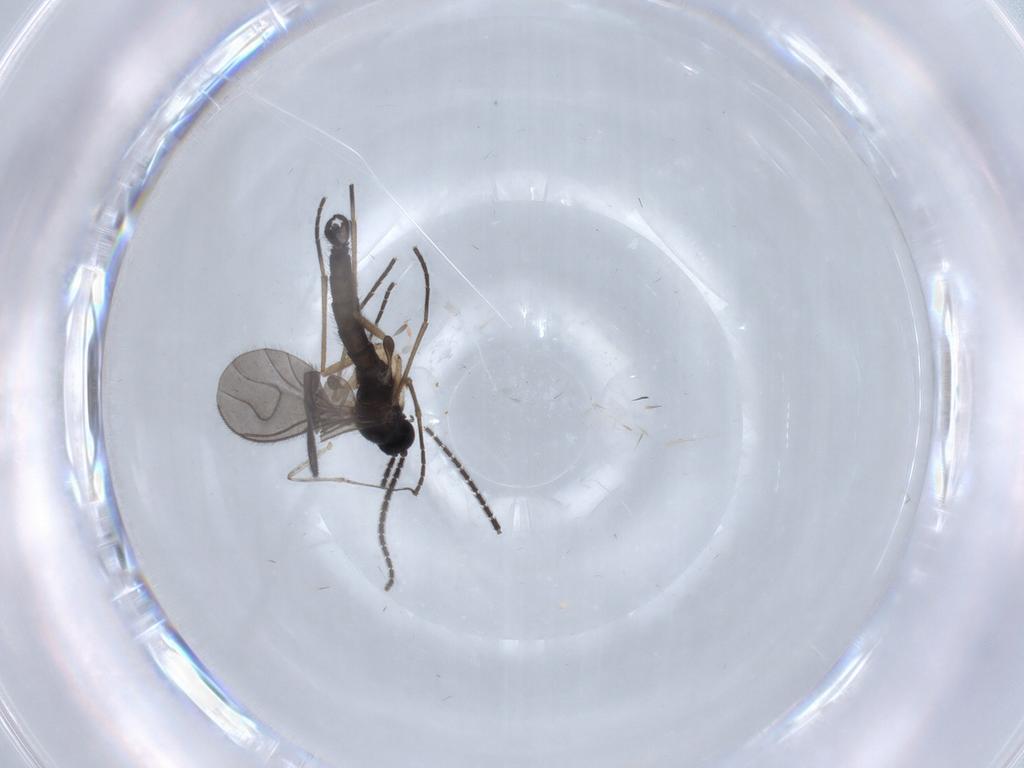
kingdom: Animalia
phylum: Arthropoda
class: Insecta
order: Diptera
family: Sciaridae
